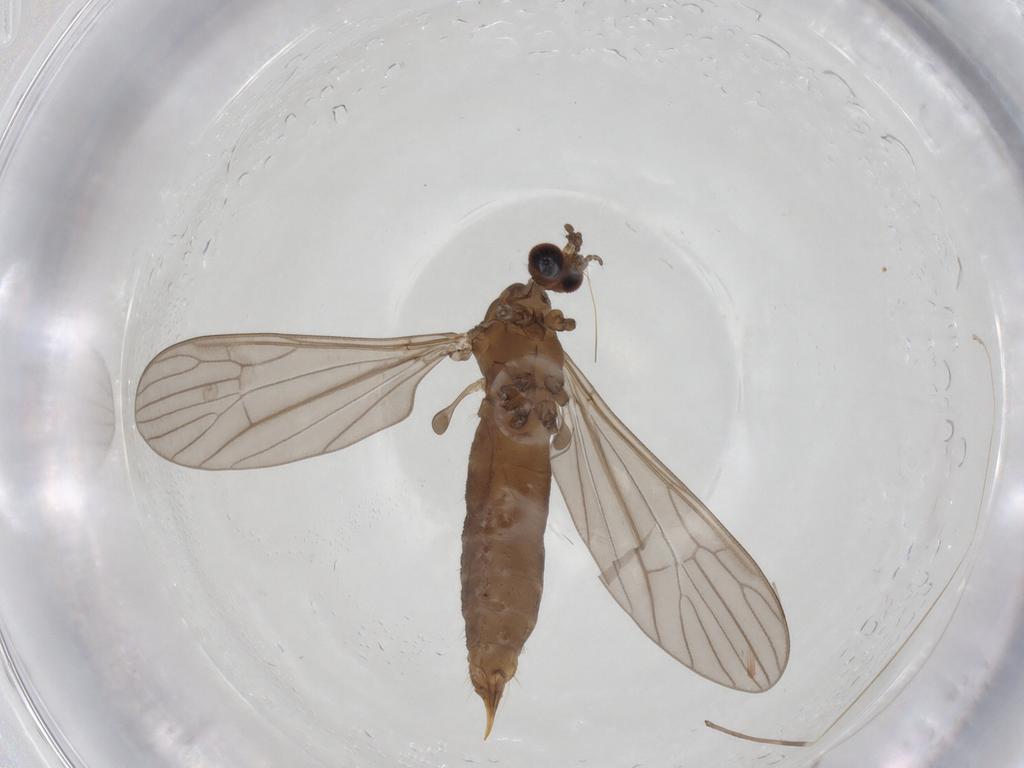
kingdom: Animalia
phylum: Arthropoda
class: Insecta
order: Diptera
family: Limoniidae
